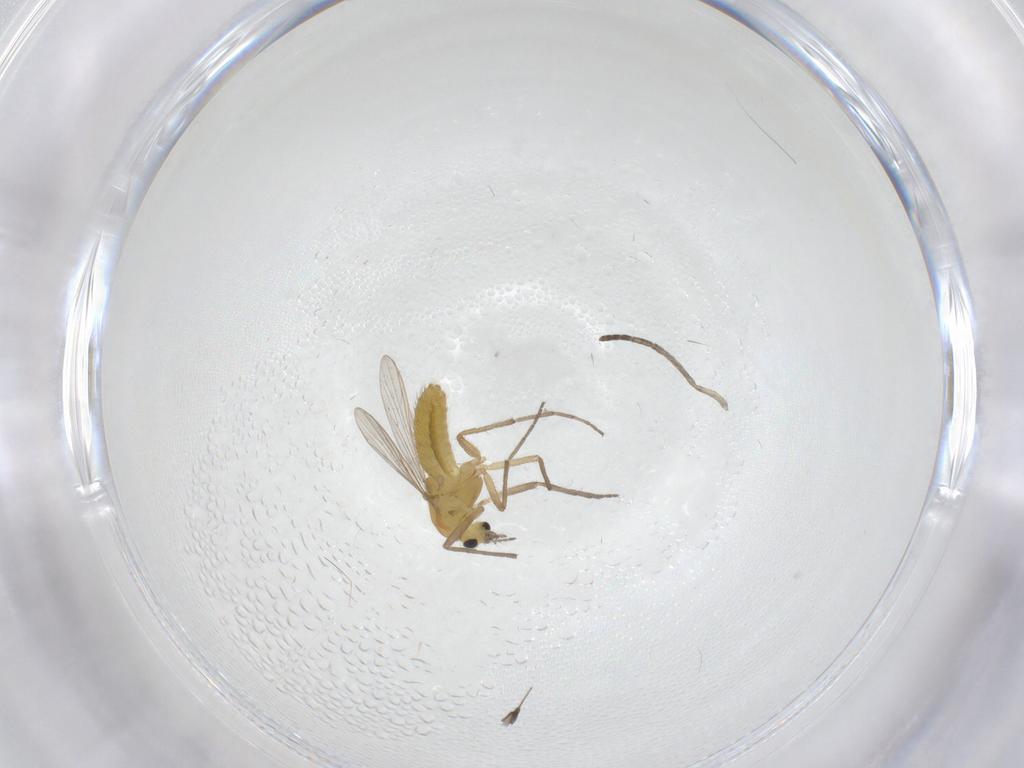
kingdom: Animalia
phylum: Arthropoda
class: Insecta
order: Diptera
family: Chironomidae
